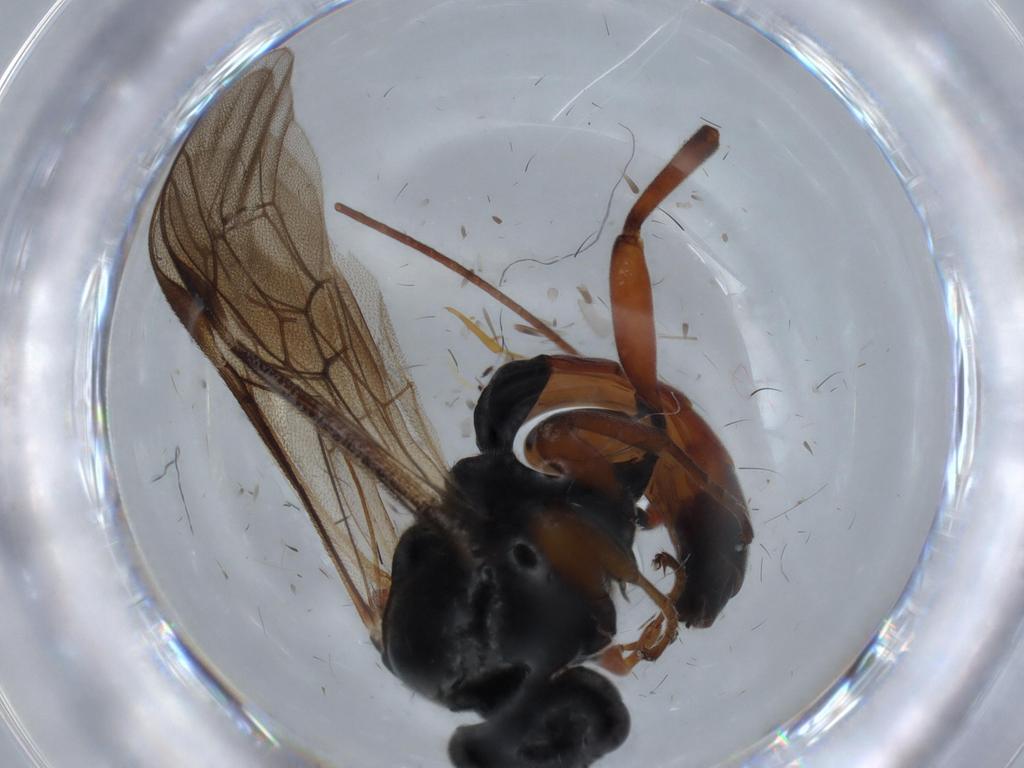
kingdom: Animalia
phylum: Arthropoda
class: Insecta
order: Hymenoptera
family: Ichneumonidae
